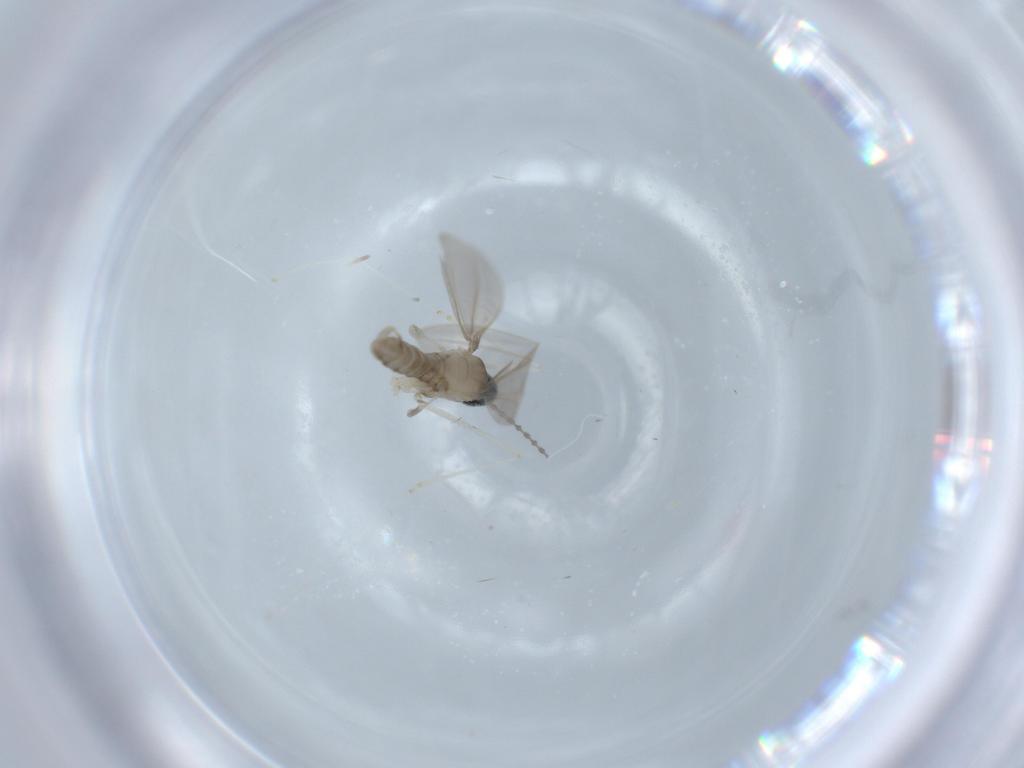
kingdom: Animalia
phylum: Arthropoda
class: Insecta
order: Diptera
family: Cecidomyiidae
